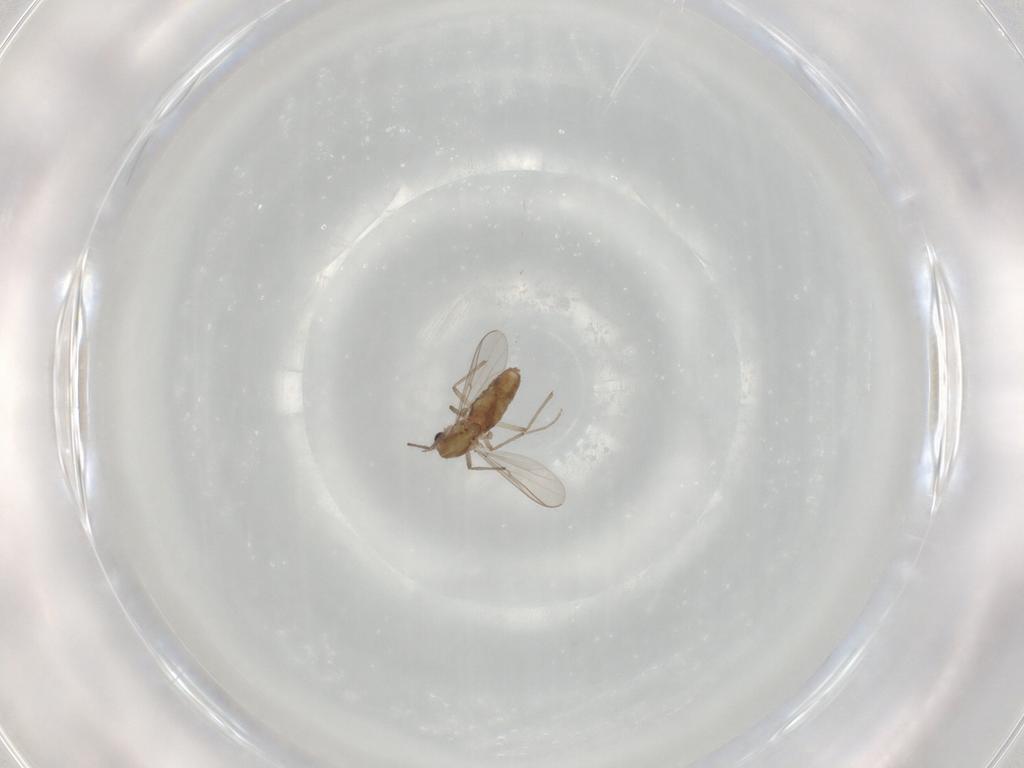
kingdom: Animalia
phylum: Arthropoda
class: Insecta
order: Diptera
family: Chironomidae
